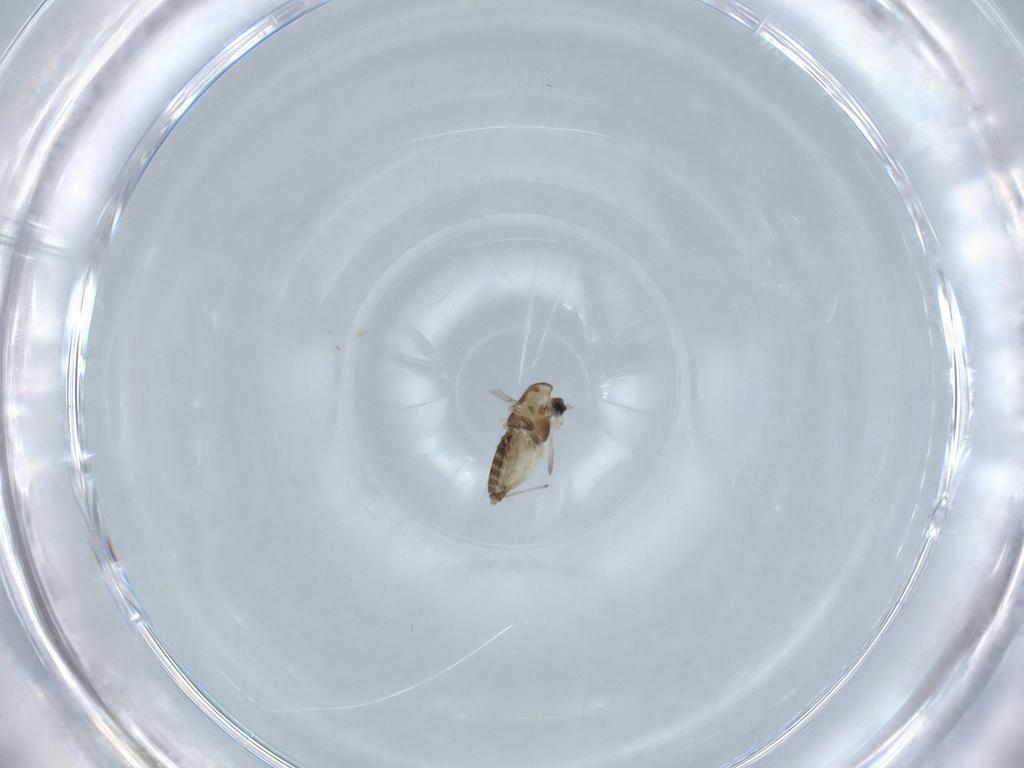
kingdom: Animalia
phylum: Arthropoda
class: Insecta
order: Diptera
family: Chironomidae
